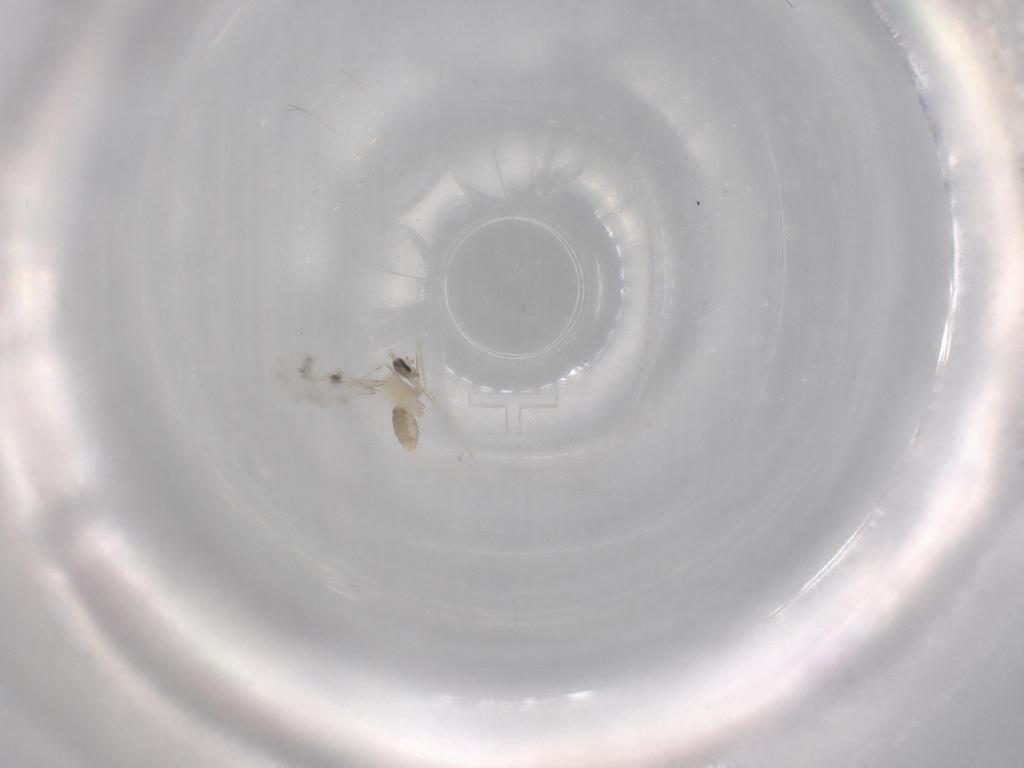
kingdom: Animalia
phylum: Arthropoda
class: Insecta
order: Diptera
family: Cecidomyiidae
